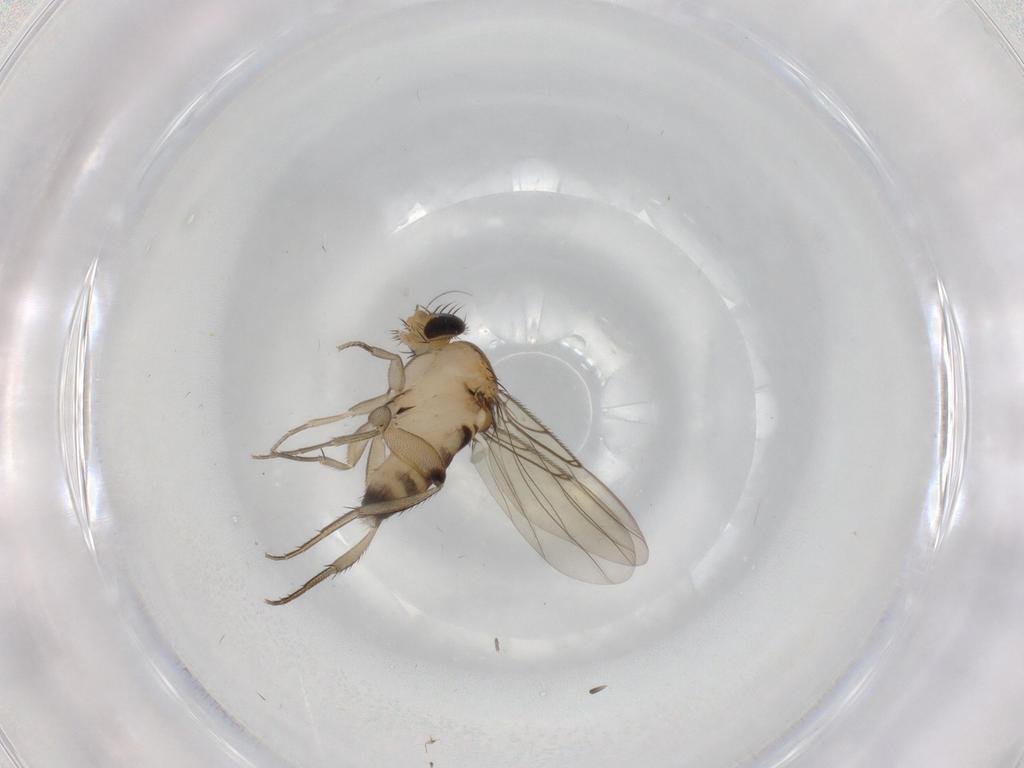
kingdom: Animalia
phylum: Arthropoda
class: Insecta
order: Diptera
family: Phoridae
